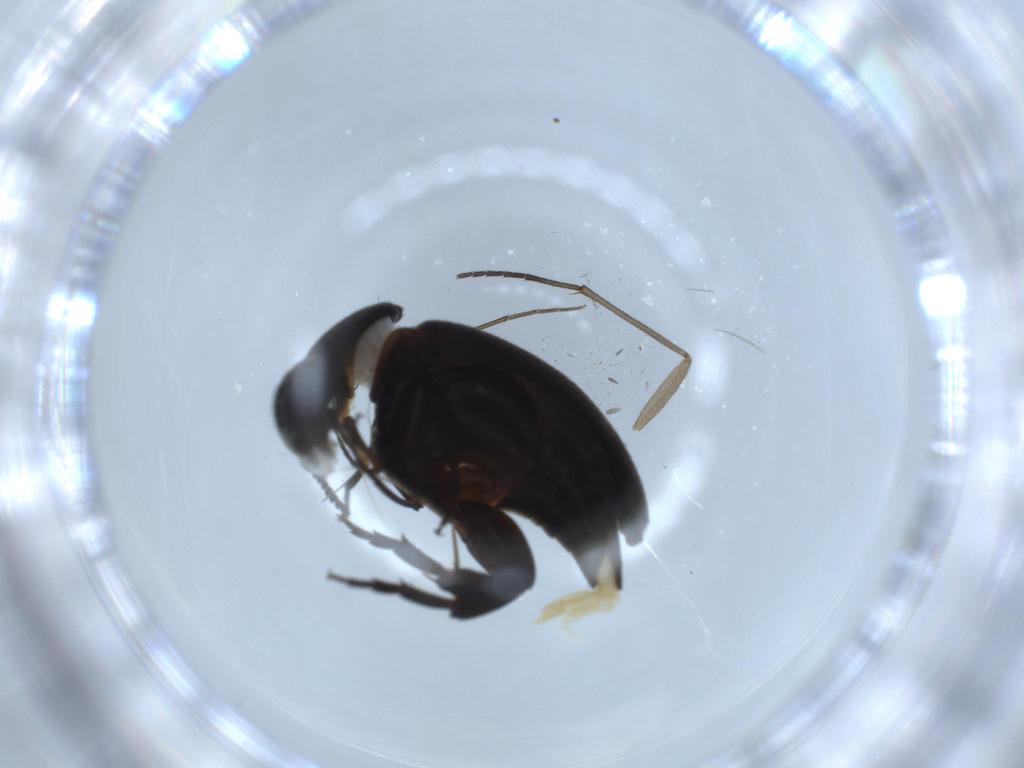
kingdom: Animalia
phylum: Arthropoda
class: Insecta
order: Coleoptera
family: Mordellidae
